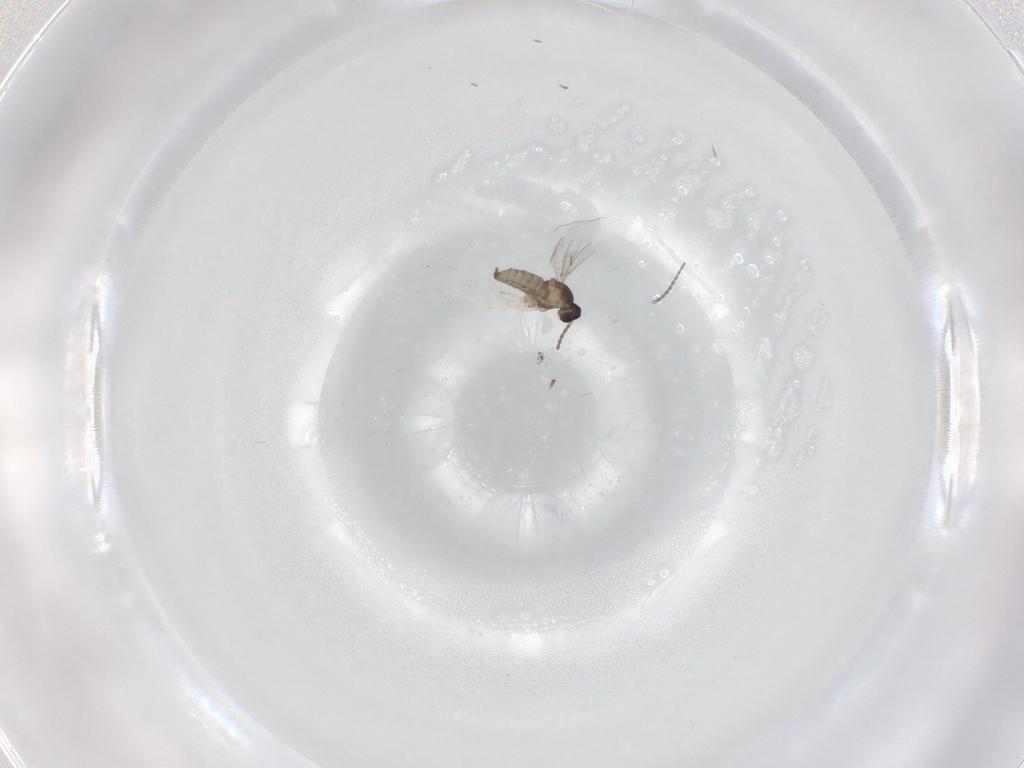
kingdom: Animalia
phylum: Arthropoda
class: Insecta
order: Diptera
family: Cecidomyiidae
